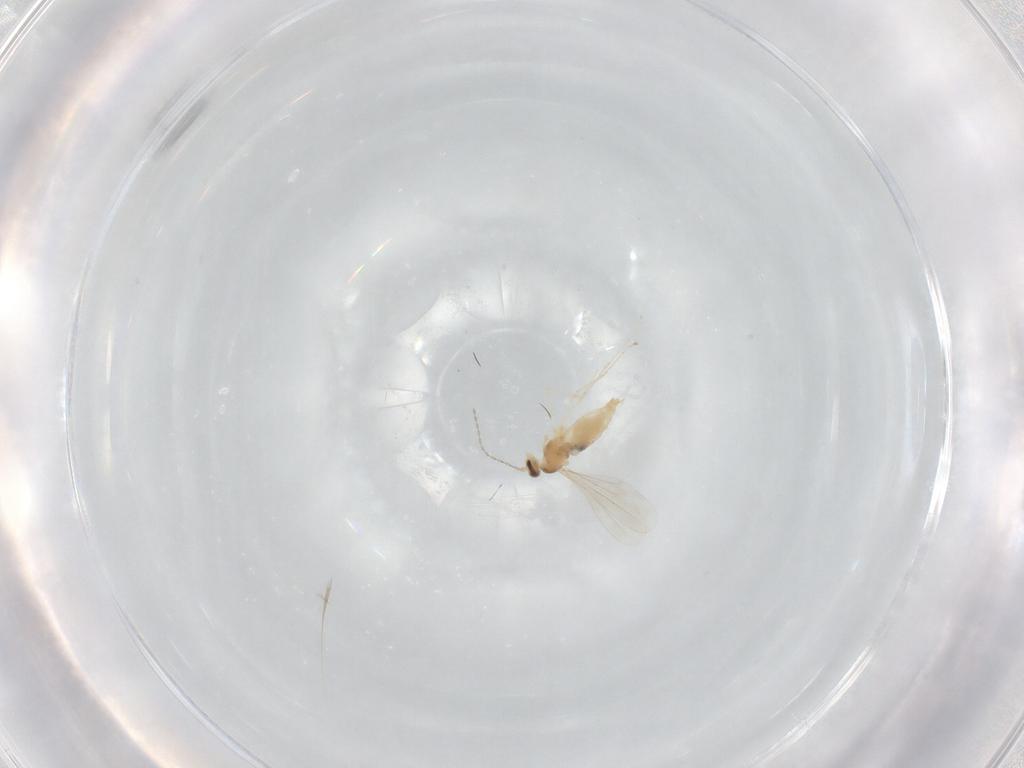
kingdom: Animalia
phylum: Arthropoda
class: Insecta
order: Diptera
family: Cecidomyiidae
